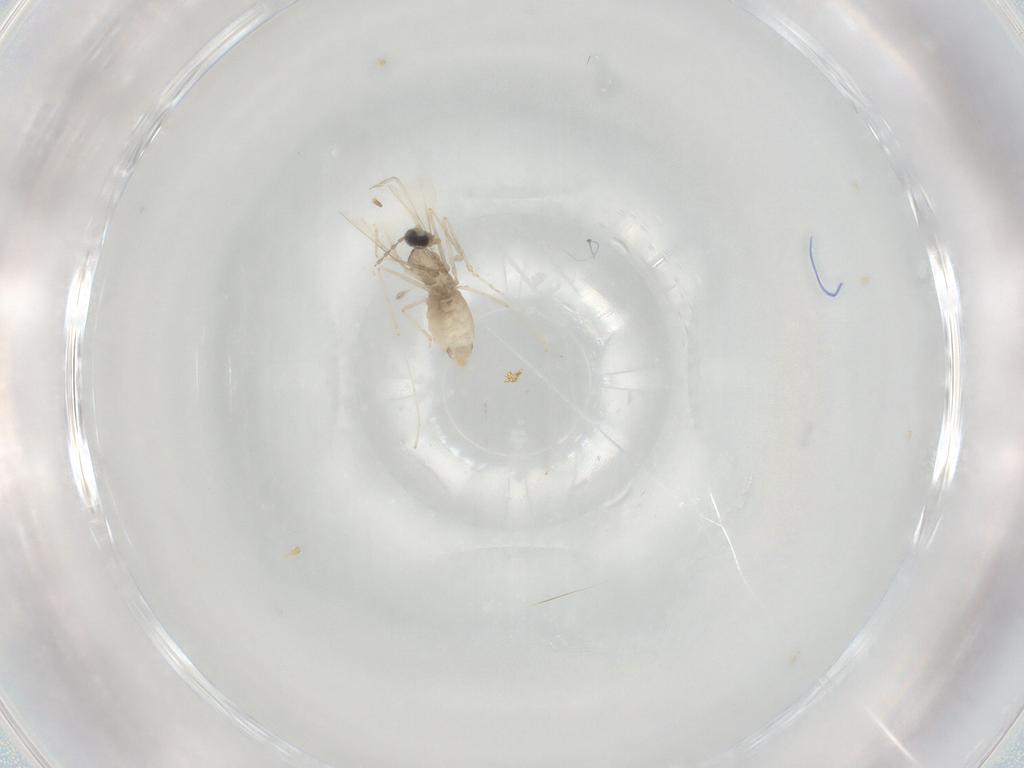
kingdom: Animalia
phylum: Arthropoda
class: Insecta
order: Diptera
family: Cecidomyiidae
